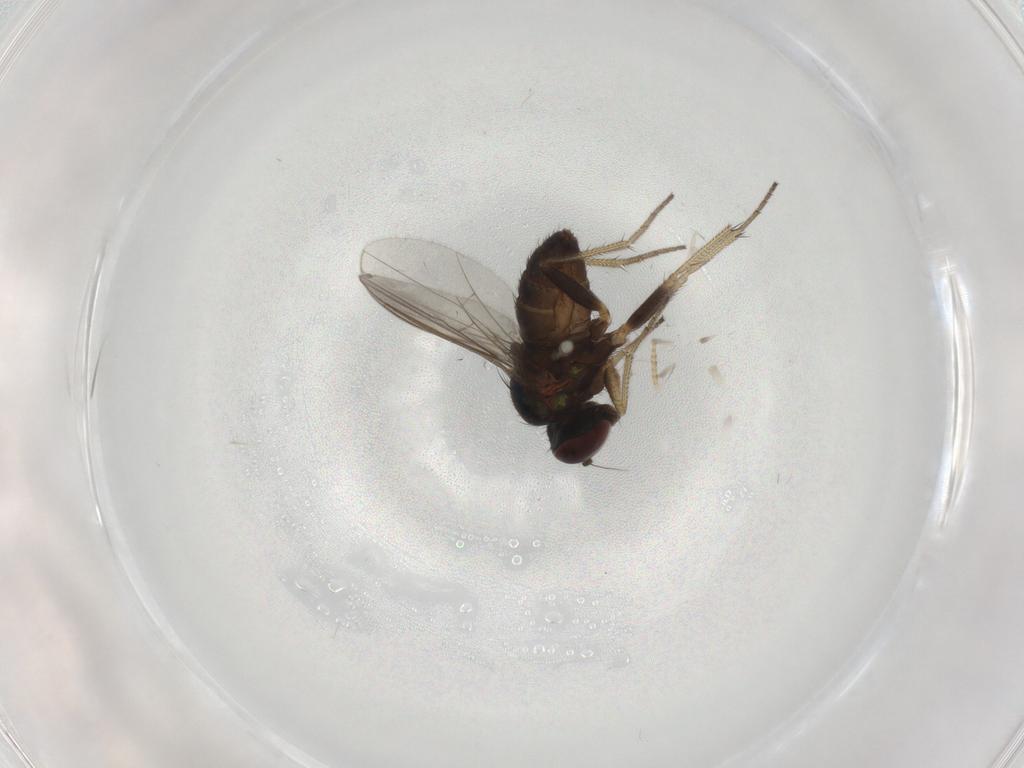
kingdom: Animalia
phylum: Arthropoda
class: Insecta
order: Diptera
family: Dolichopodidae
